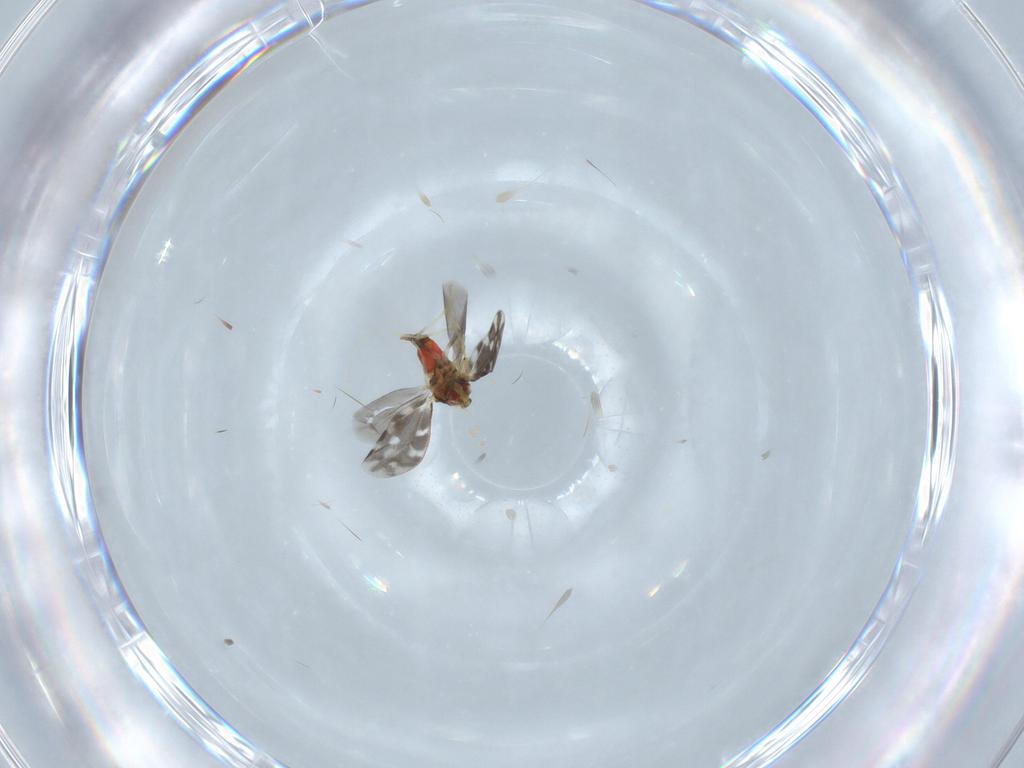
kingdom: Animalia
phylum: Arthropoda
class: Insecta
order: Hemiptera
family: Aleyrodidae
